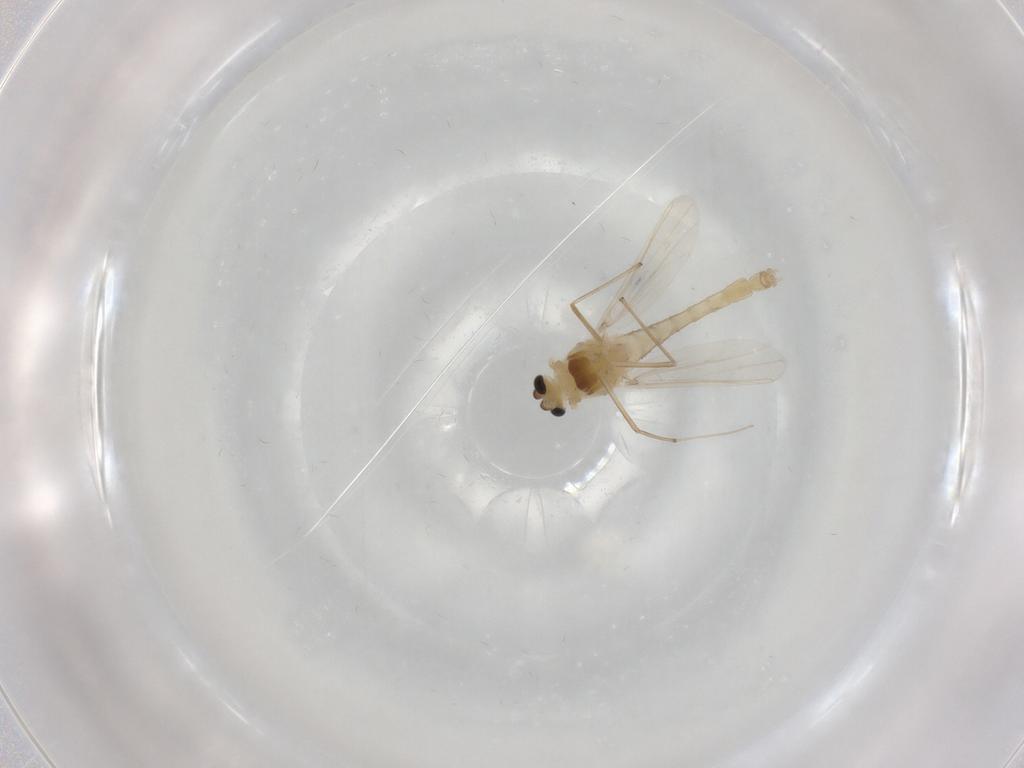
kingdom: Animalia
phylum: Arthropoda
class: Insecta
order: Diptera
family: Chironomidae
